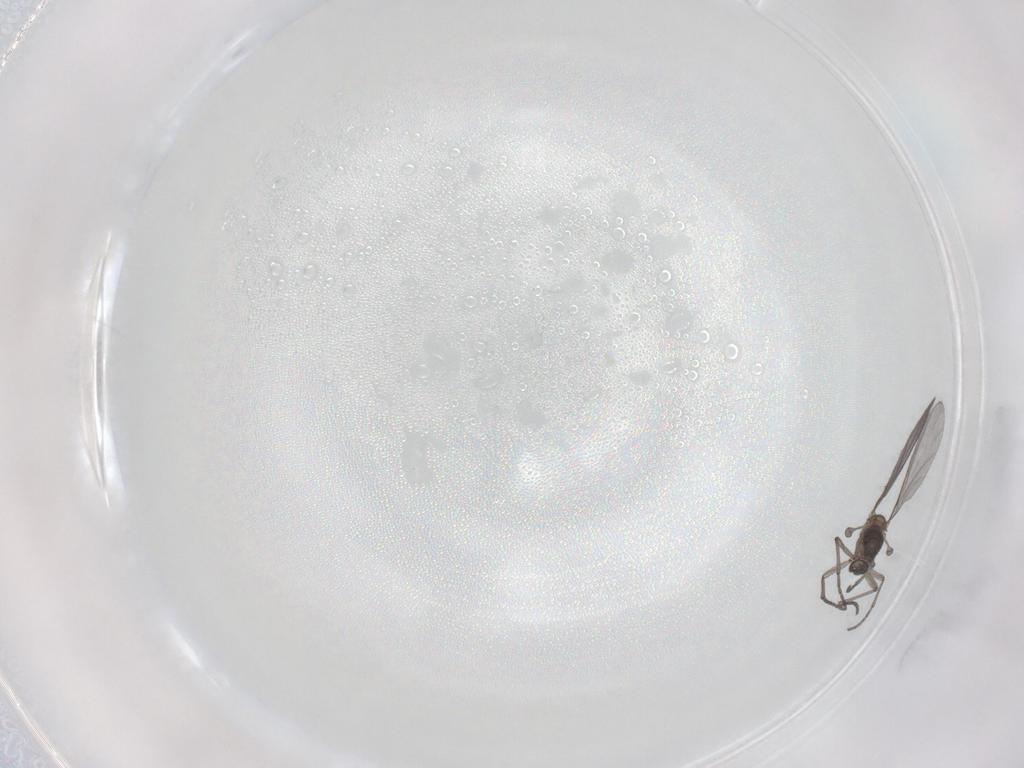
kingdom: Animalia
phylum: Arthropoda
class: Insecta
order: Diptera
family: Sciaridae
